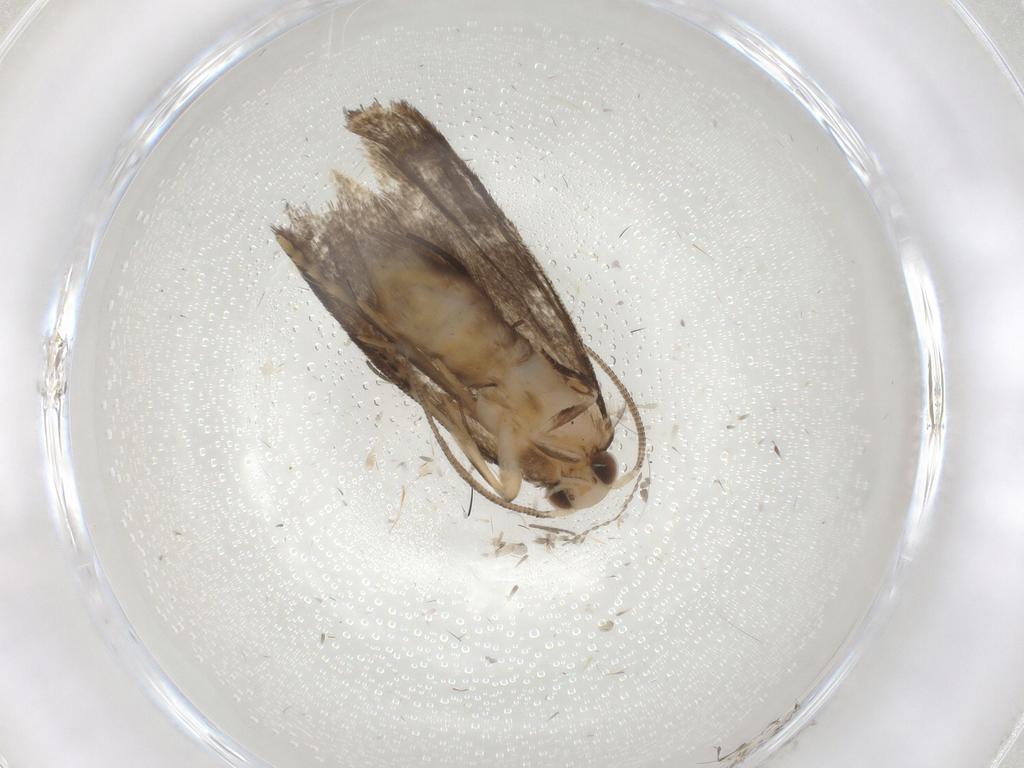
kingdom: Animalia
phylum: Arthropoda
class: Insecta
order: Lepidoptera
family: Dryadaulidae
